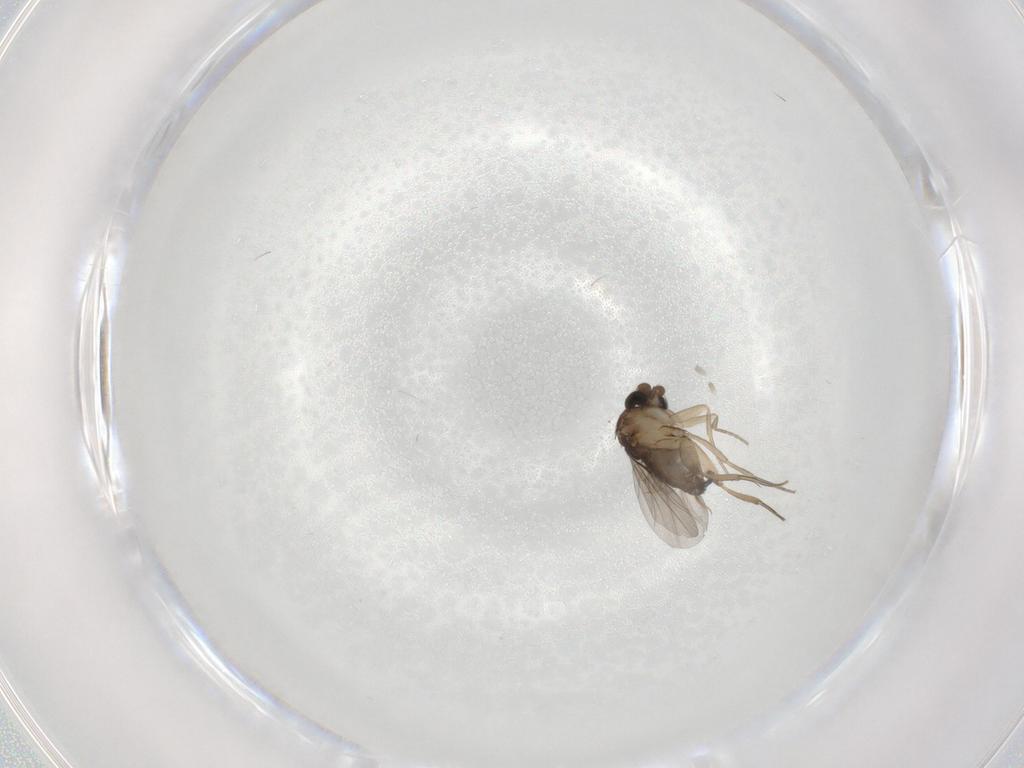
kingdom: Animalia
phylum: Arthropoda
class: Insecta
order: Diptera
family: Phoridae
